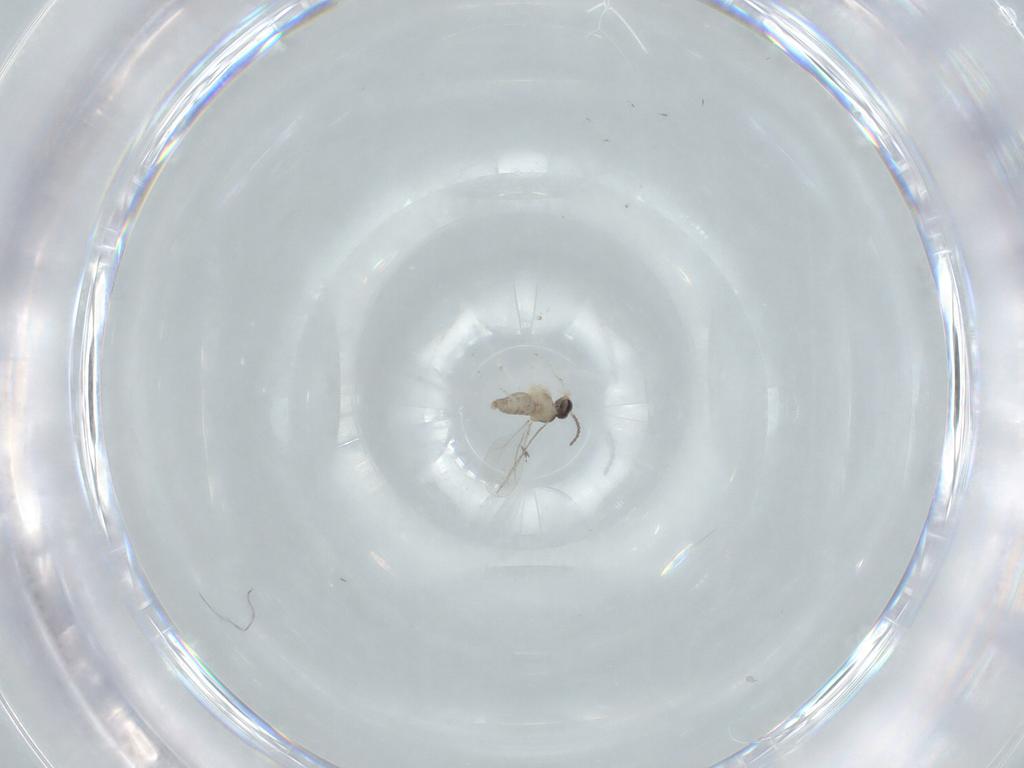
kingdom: Animalia
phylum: Arthropoda
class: Insecta
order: Diptera
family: Cecidomyiidae
